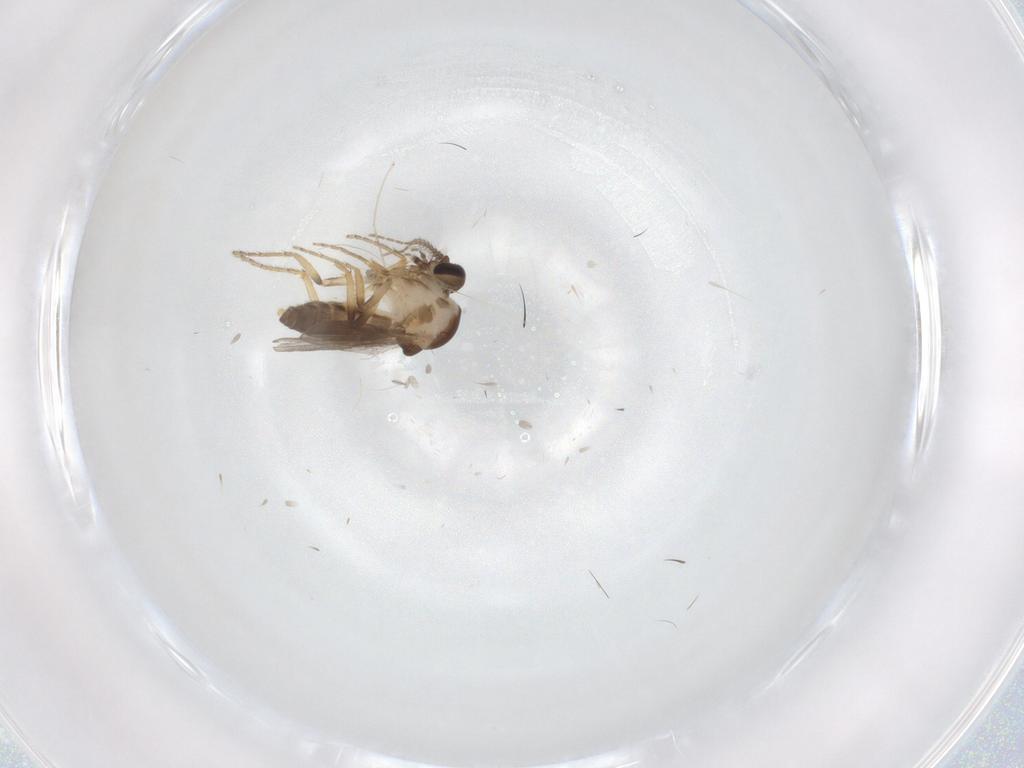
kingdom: Animalia
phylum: Arthropoda
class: Insecta
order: Diptera
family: Ceratopogonidae
